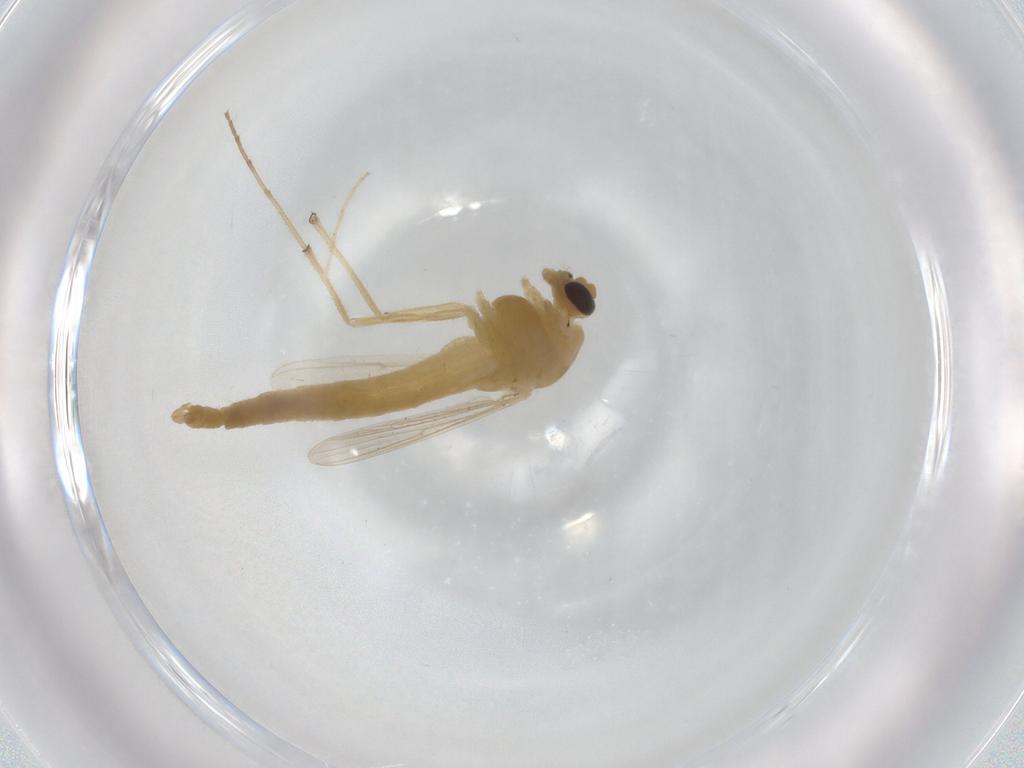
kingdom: Animalia
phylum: Arthropoda
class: Insecta
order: Diptera
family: Chironomidae
